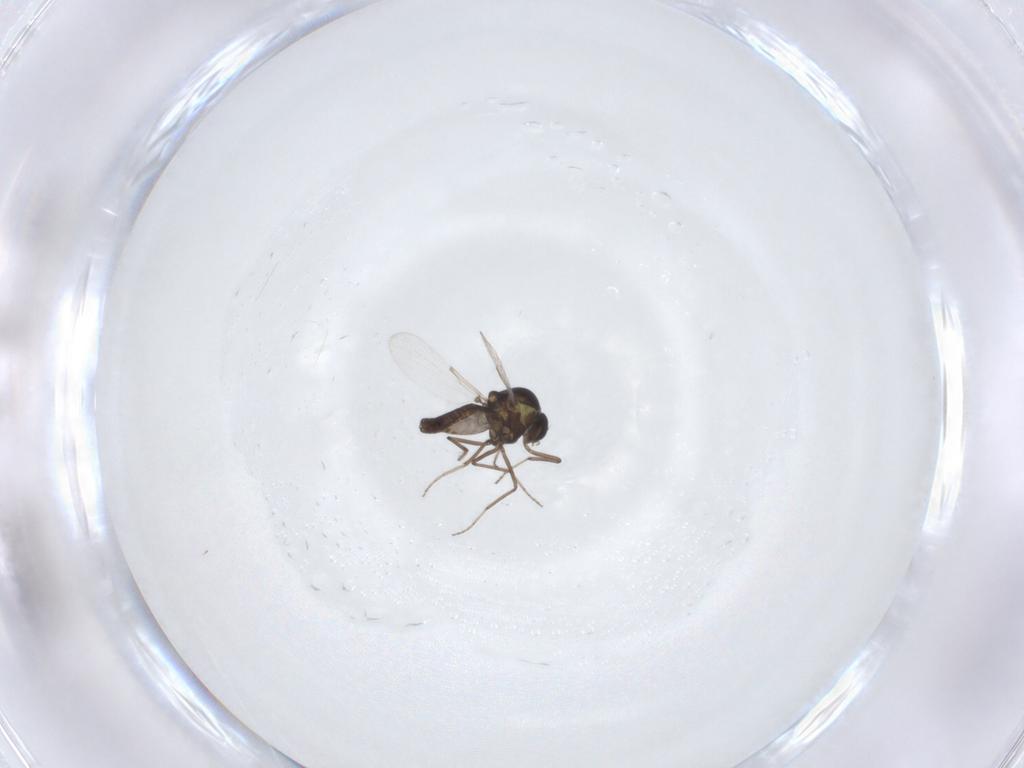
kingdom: Animalia
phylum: Arthropoda
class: Insecta
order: Diptera
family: Ceratopogonidae
